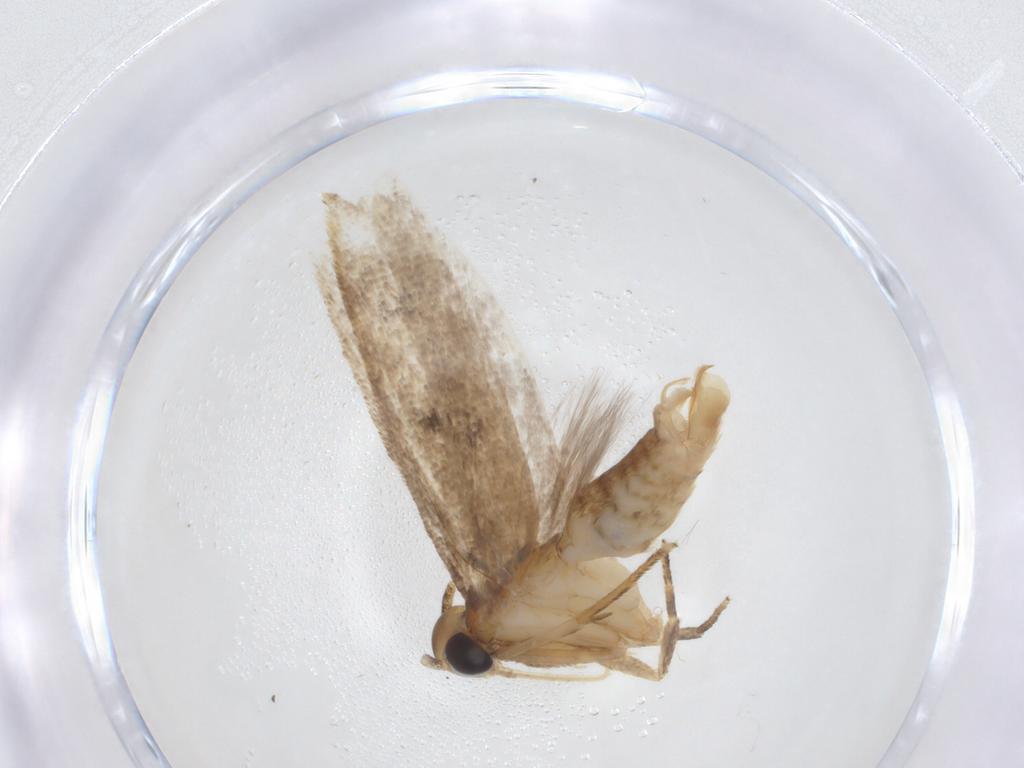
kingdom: Animalia
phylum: Arthropoda
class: Insecta
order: Lepidoptera
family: Oecophoridae
